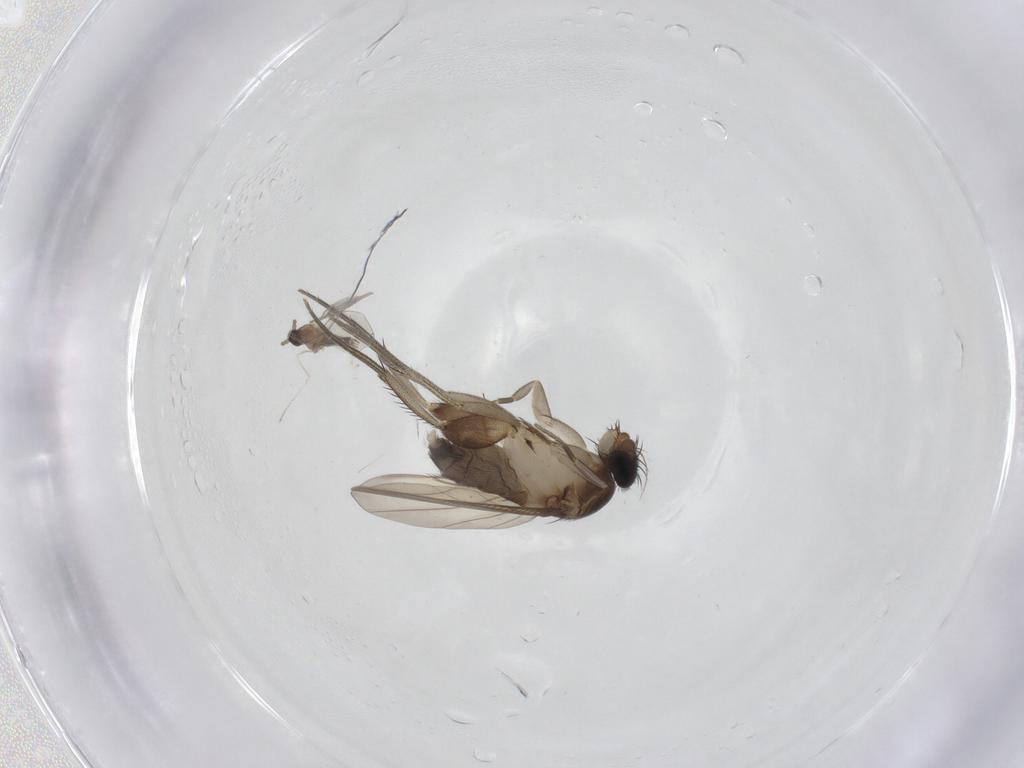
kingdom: Animalia
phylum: Arthropoda
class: Insecta
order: Diptera
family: Phoridae
